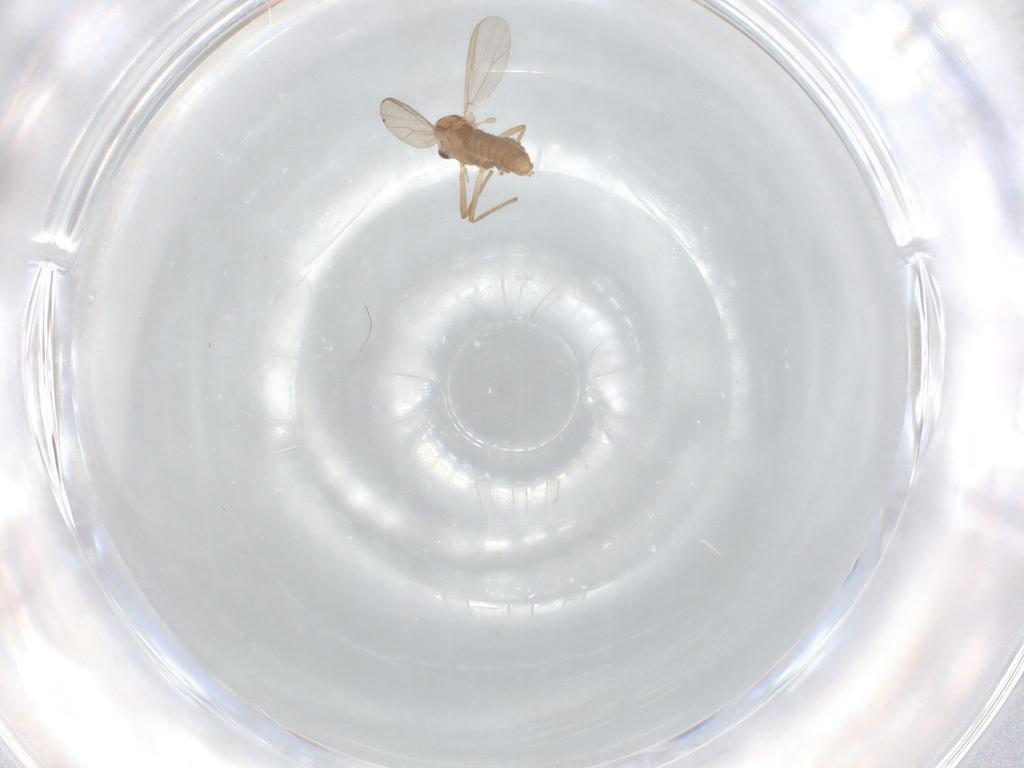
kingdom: Animalia
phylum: Arthropoda
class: Insecta
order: Diptera
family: Chironomidae
